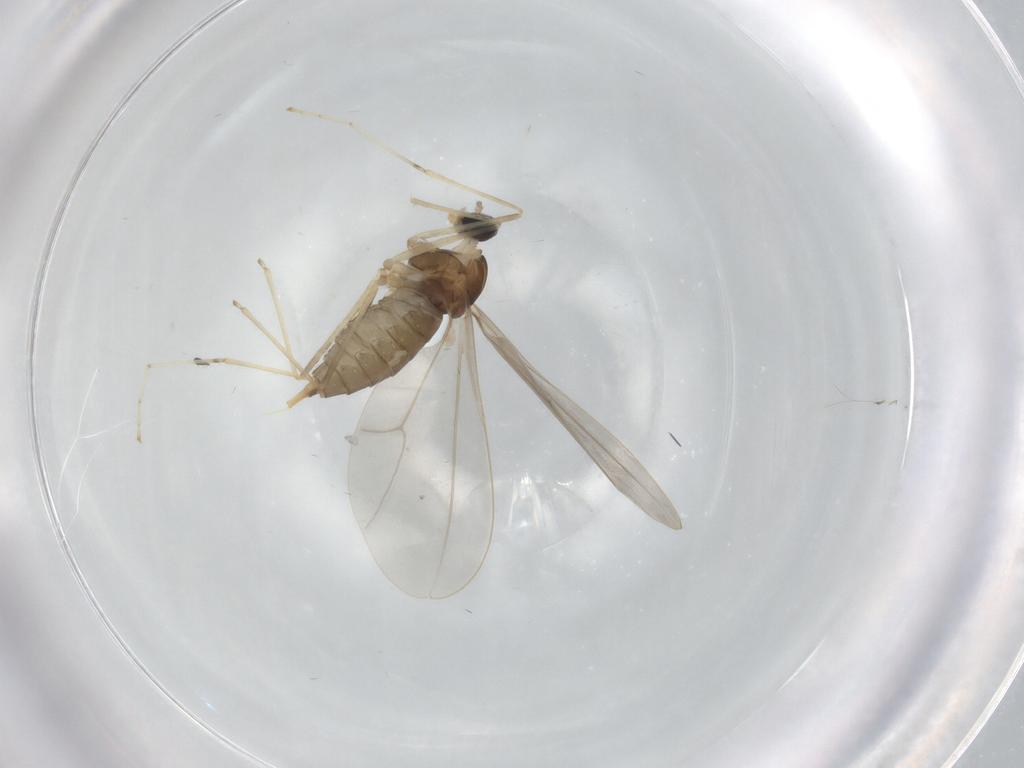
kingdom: Animalia
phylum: Arthropoda
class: Insecta
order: Diptera
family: Cecidomyiidae
